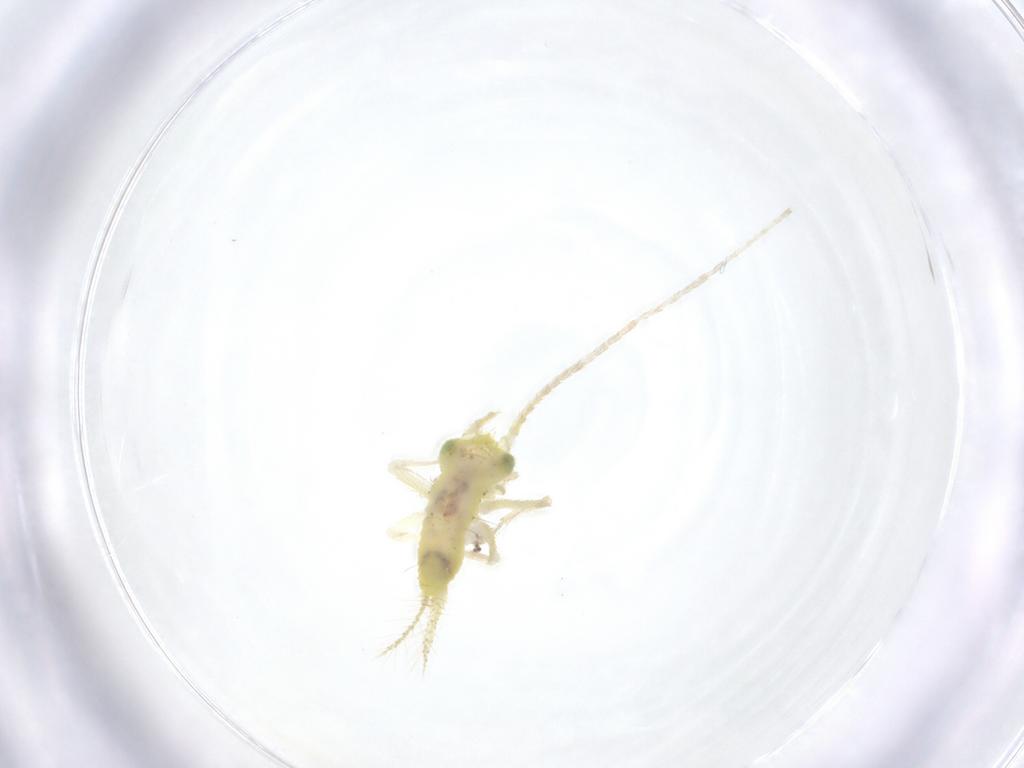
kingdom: Animalia
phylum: Arthropoda
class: Insecta
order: Orthoptera
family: Trigonidiidae
